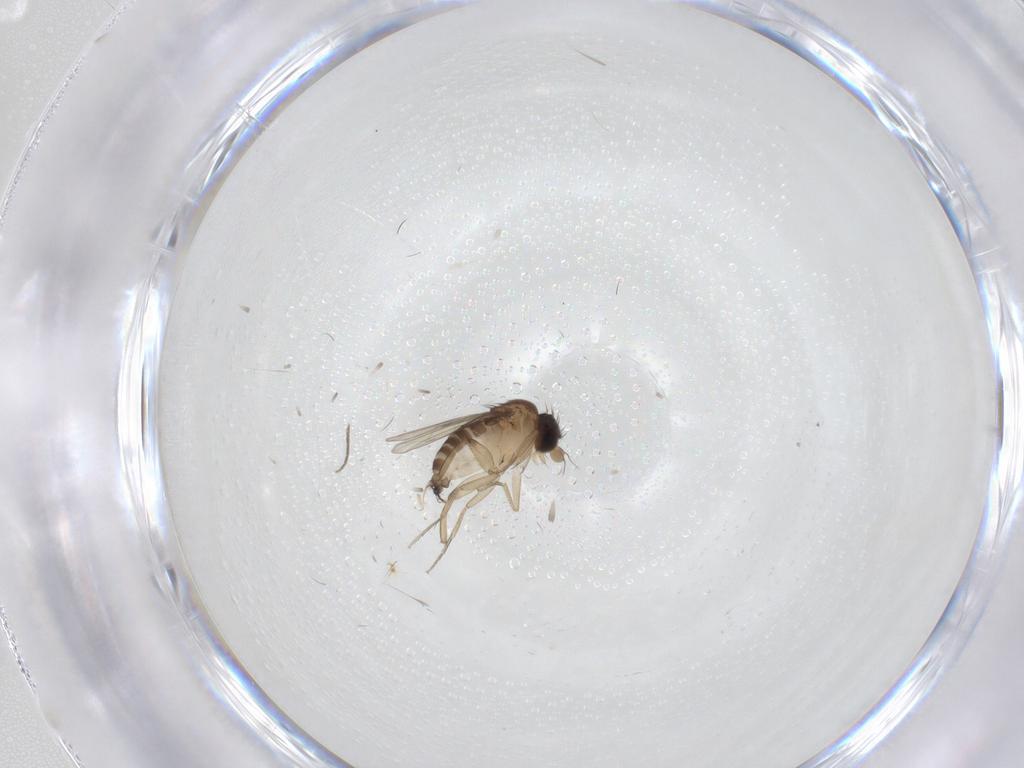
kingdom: Animalia
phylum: Arthropoda
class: Insecta
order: Diptera
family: Phoridae
